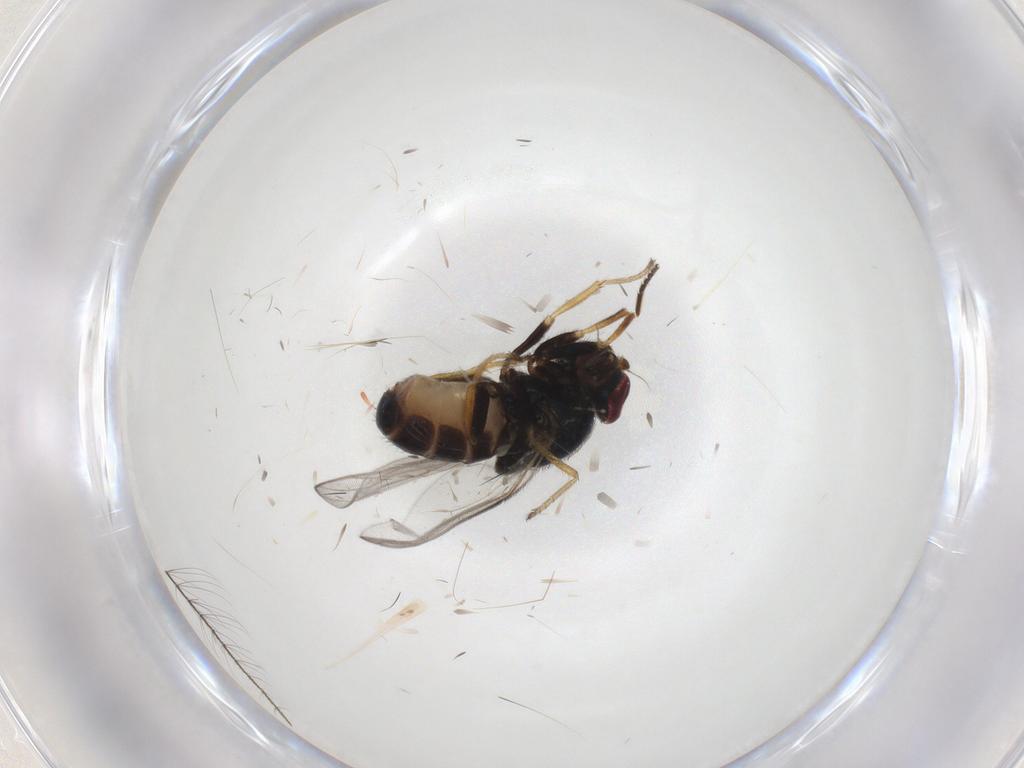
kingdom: Animalia
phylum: Arthropoda
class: Insecta
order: Diptera
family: Chloropidae
